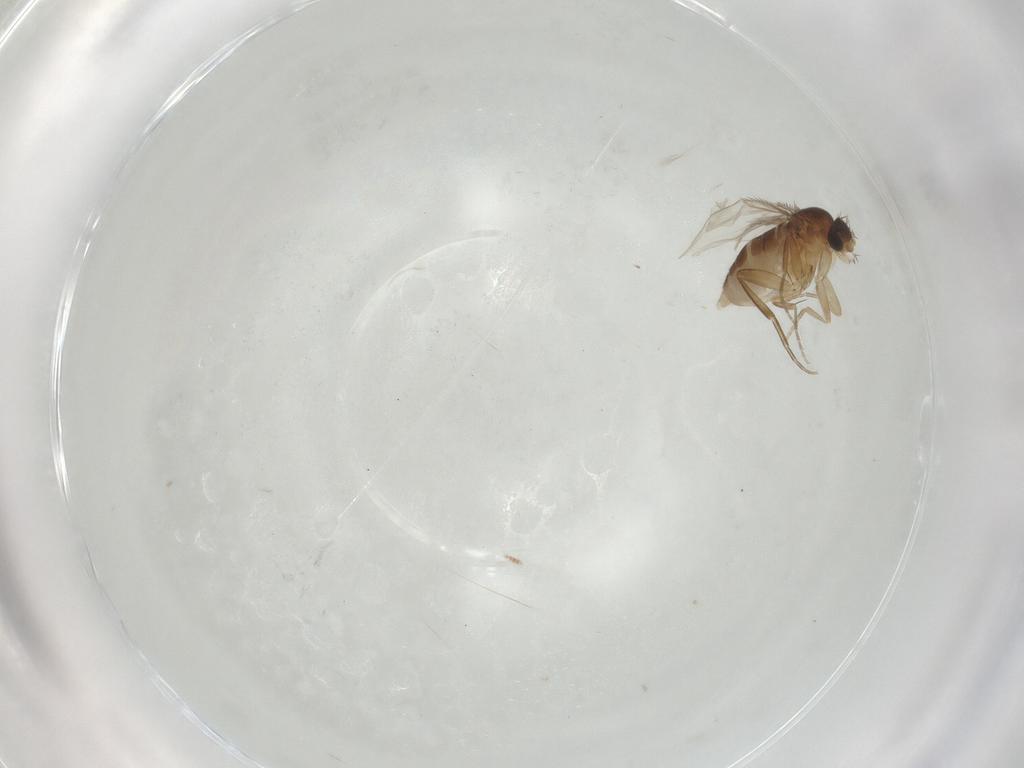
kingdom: Animalia
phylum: Arthropoda
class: Insecta
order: Diptera
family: Phoridae
